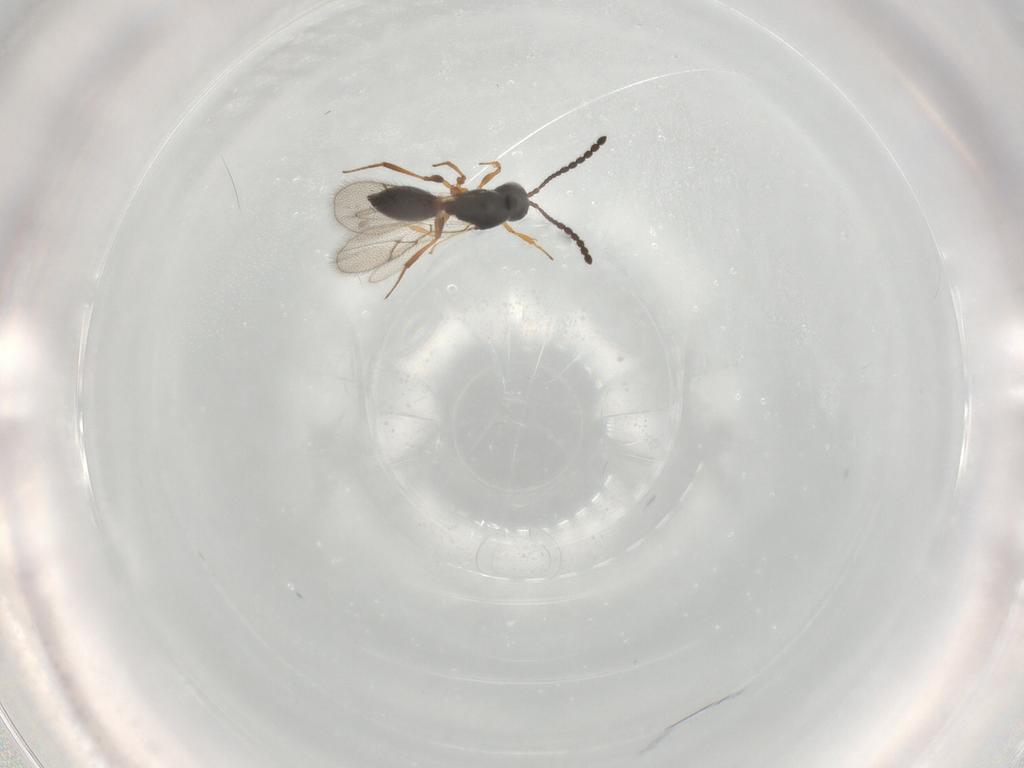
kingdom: Animalia
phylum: Arthropoda
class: Insecta
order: Hymenoptera
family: Figitidae
